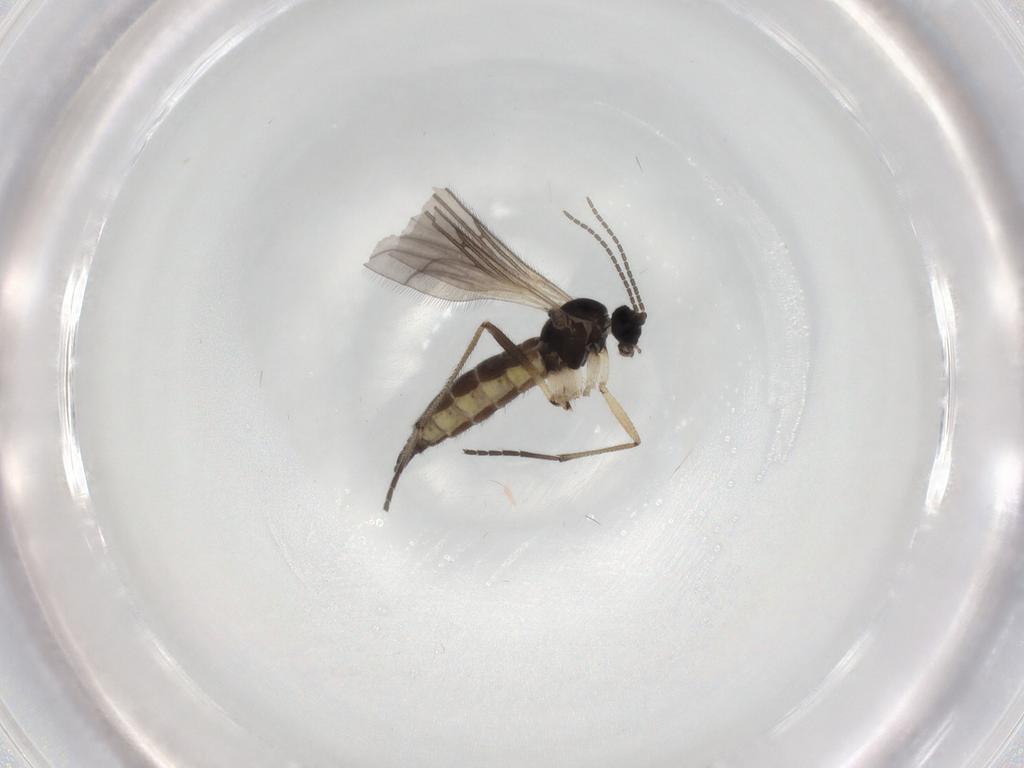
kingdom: Animalia
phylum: Arthropoda
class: Insecta
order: Diptera
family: Sciaridae
